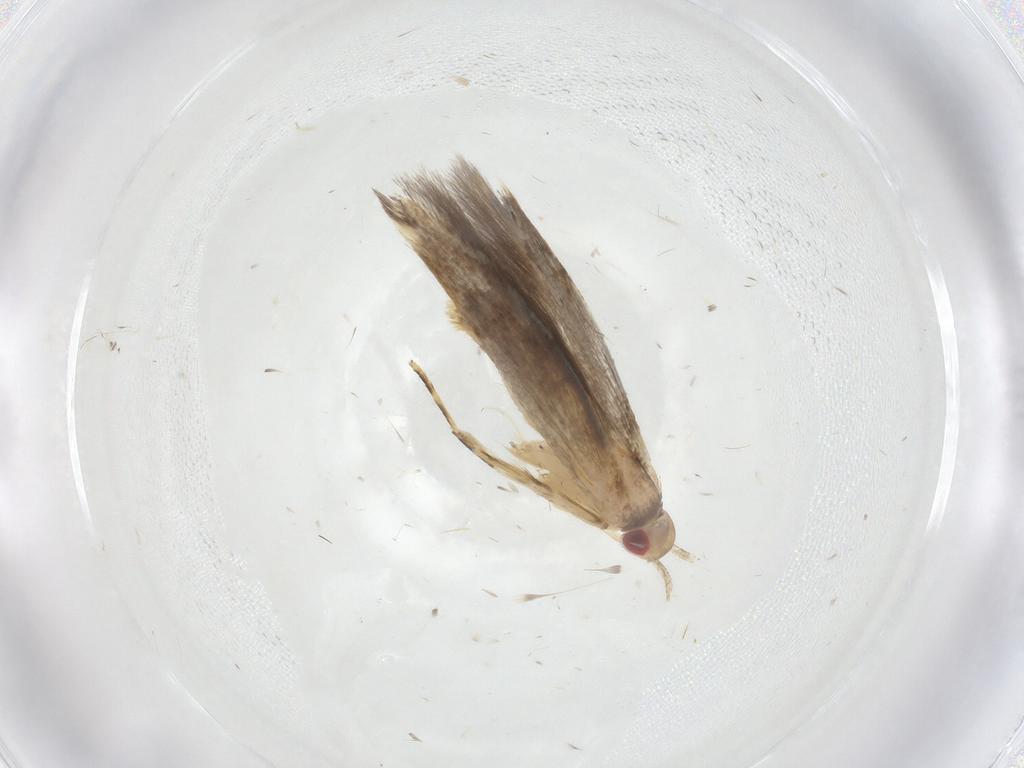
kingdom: Animalia
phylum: Arthropoda
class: Insecta
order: Lepidoptera
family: Cosmopterigidae
